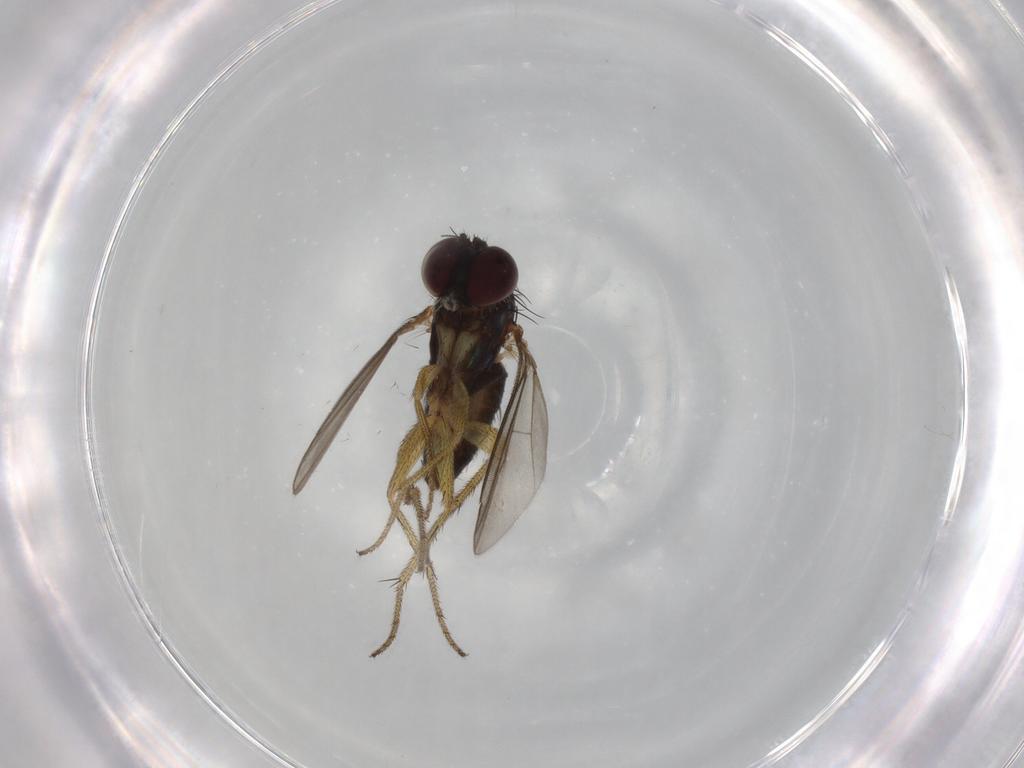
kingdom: Animalia
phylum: Arthropoda
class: Insecta
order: Diptera
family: Dolichopodidae
